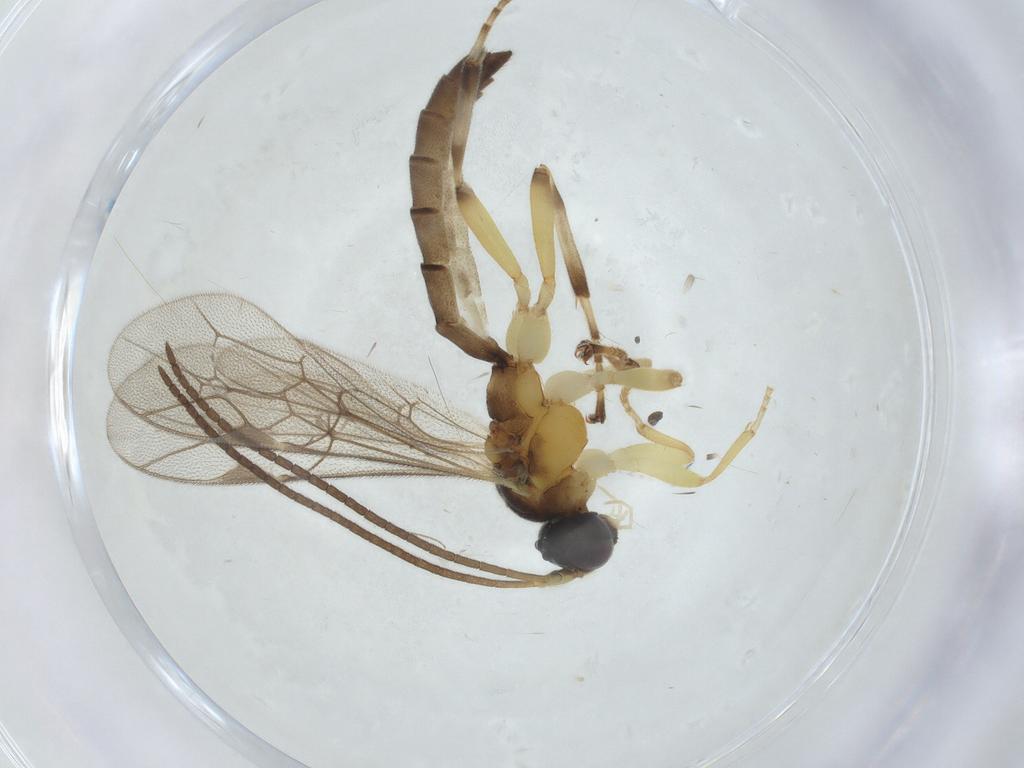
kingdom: Animalia
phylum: Arthropoda
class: Insecta
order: Hymenoptera
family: Ichneumonidae
